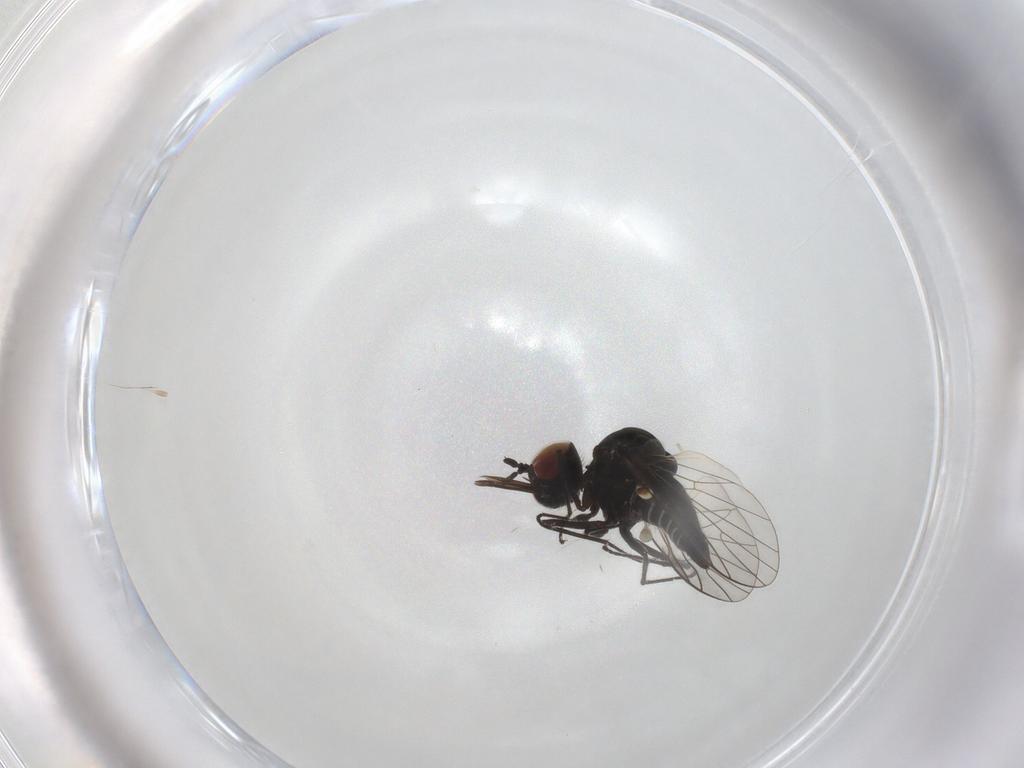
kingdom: Animalia
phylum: Arthropoda
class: Insecta
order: Diptera
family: Bombyliidae
